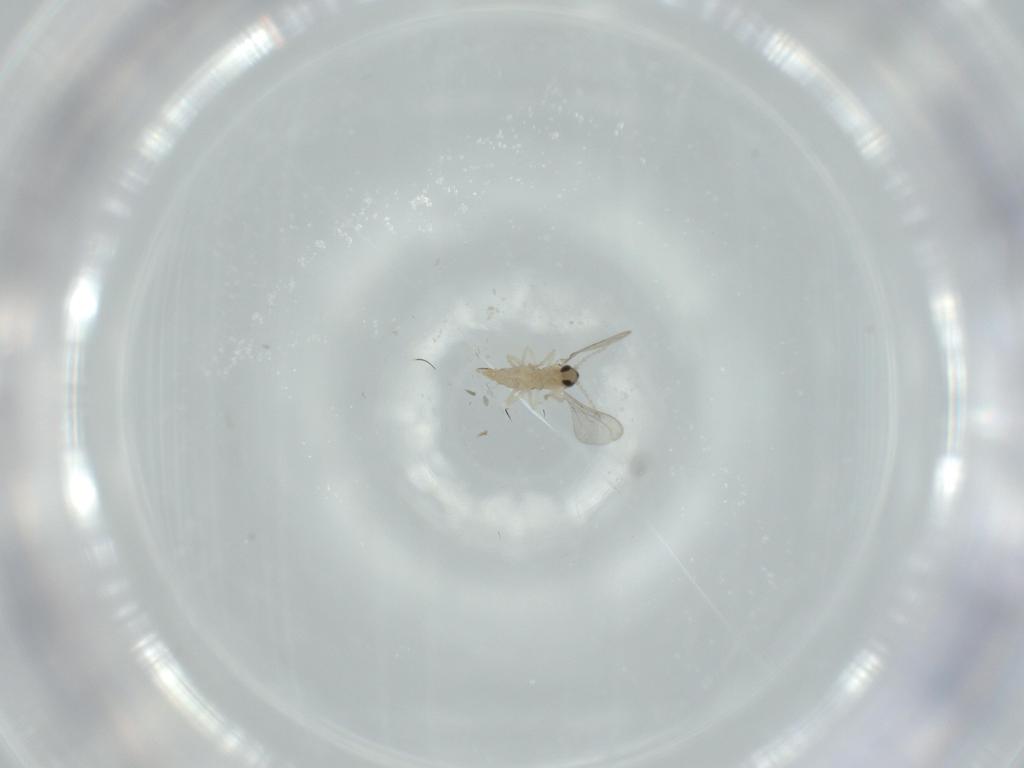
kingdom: Animalia
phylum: Arthropoda
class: Insecta
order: Diptera
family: Cecidomyiidae
